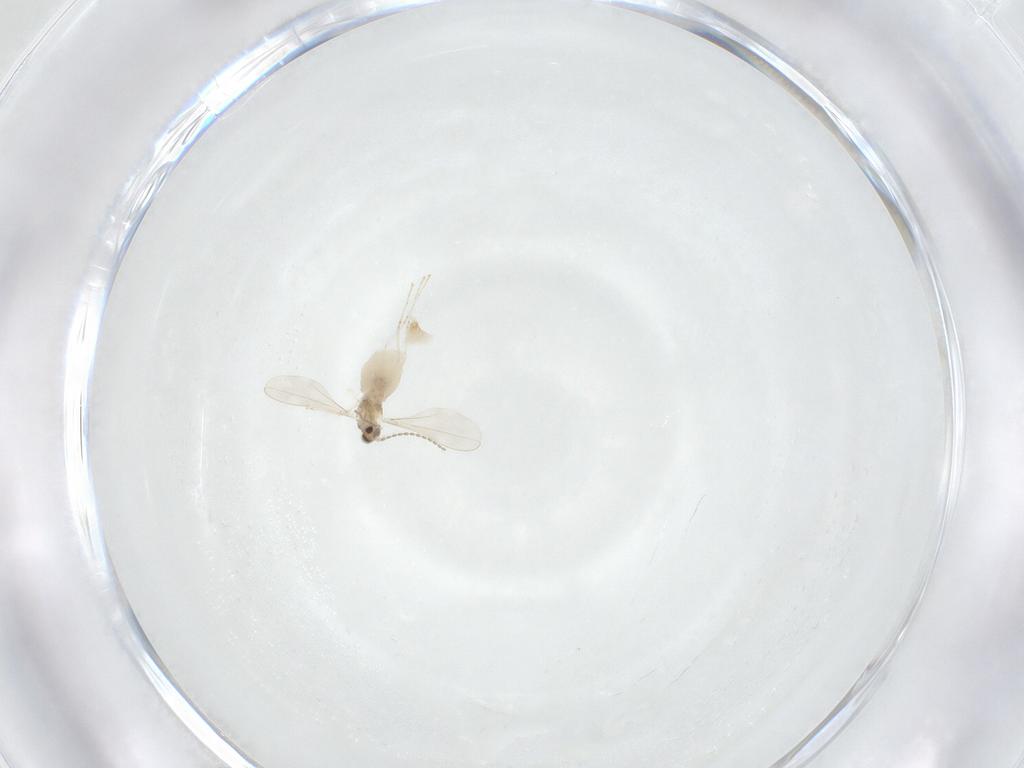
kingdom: Animalia
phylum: Arthropoda
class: Insecta
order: Diptera
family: Cecidomyiidae
